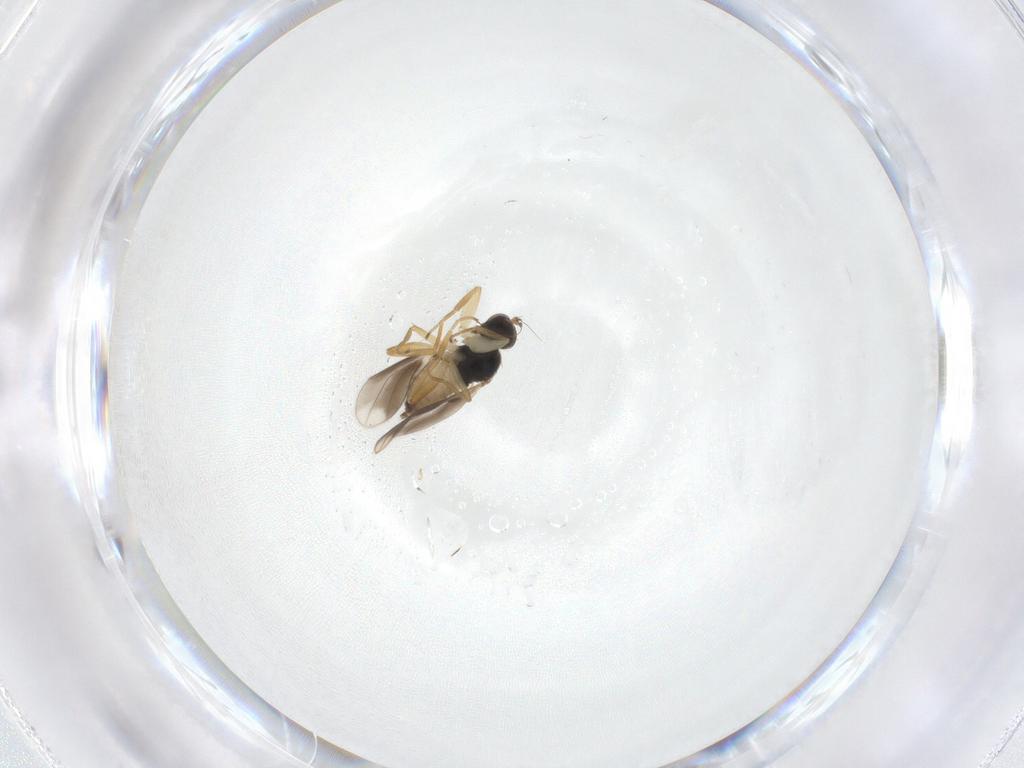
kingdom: Animalia
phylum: Arthropoda
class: Insecta
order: Diptera
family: Hybotidae
